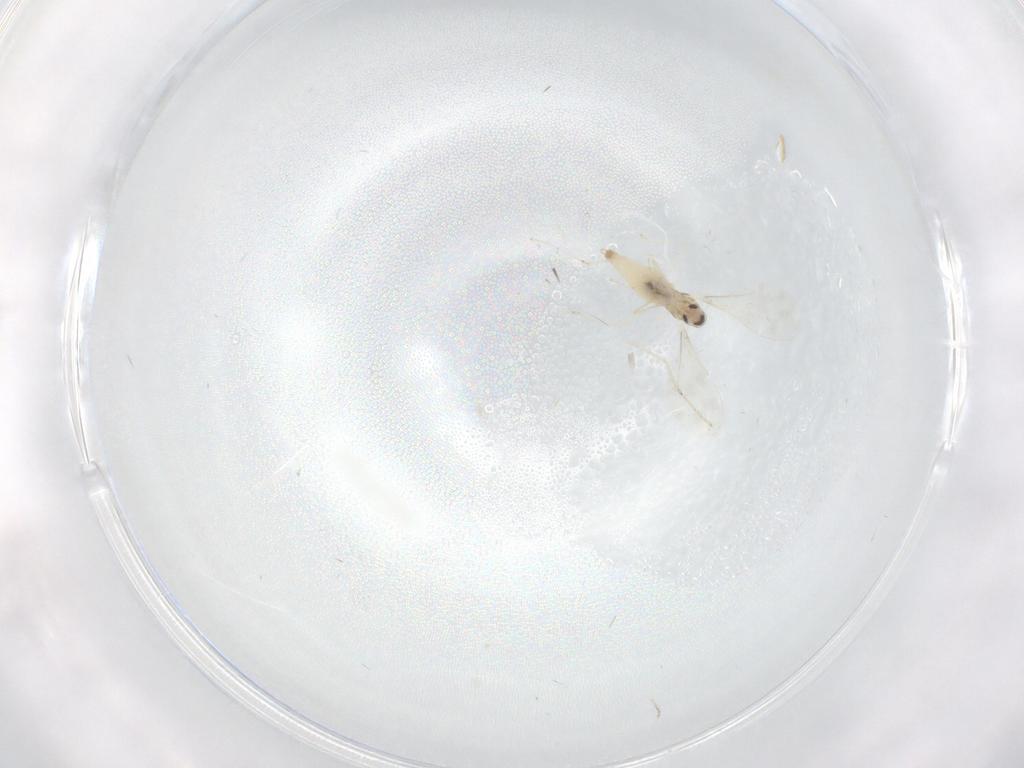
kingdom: Animalia
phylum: Arthropoda
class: Insecta
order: Diptera
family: Cecidomyiidae
